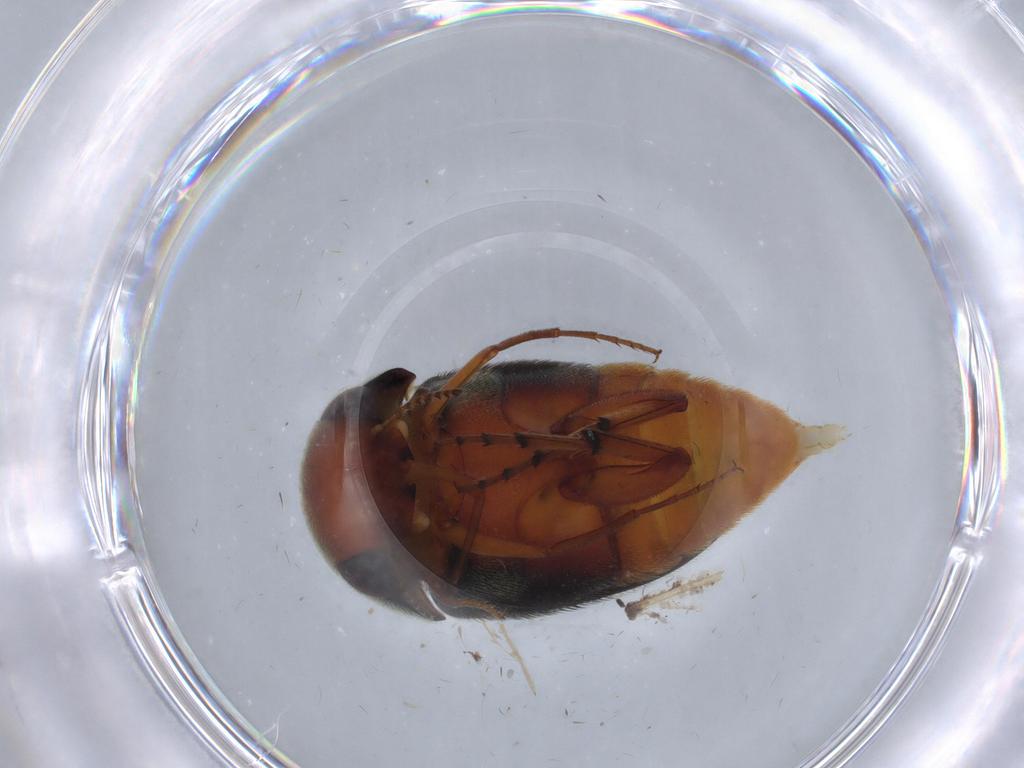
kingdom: Animalia
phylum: Arthropoda
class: Insecta
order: Coleoptera
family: Mordellidae
